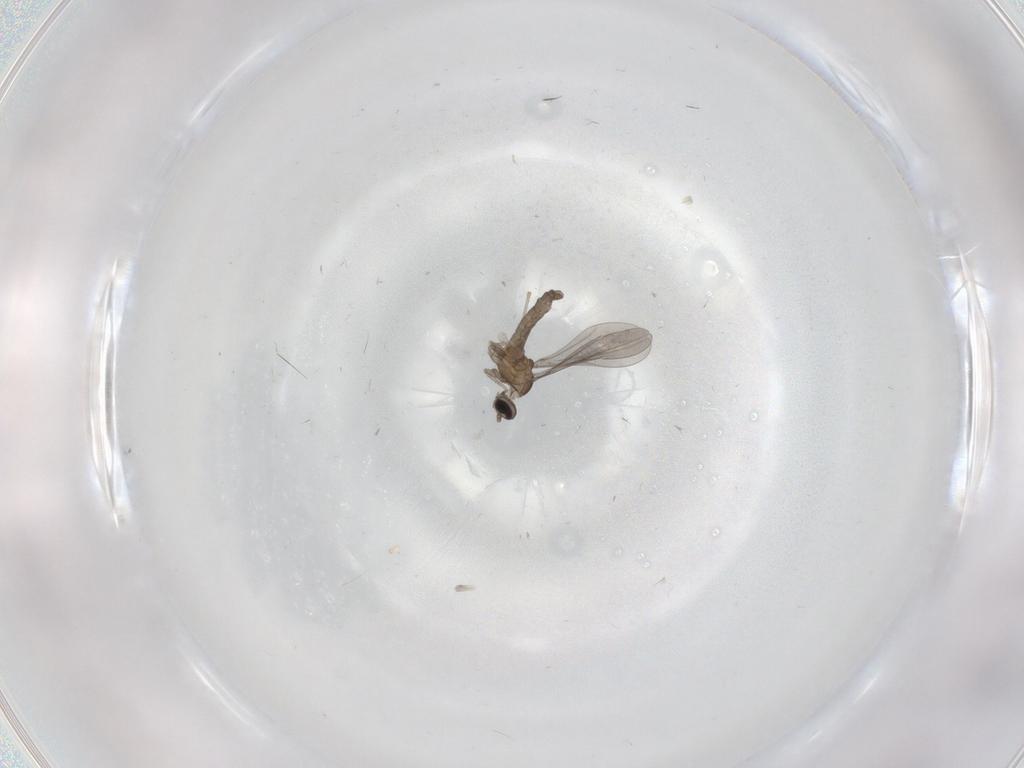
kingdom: Animalia
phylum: Arthropoda
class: Insecta
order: Diptera
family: Cecidomyiidae
